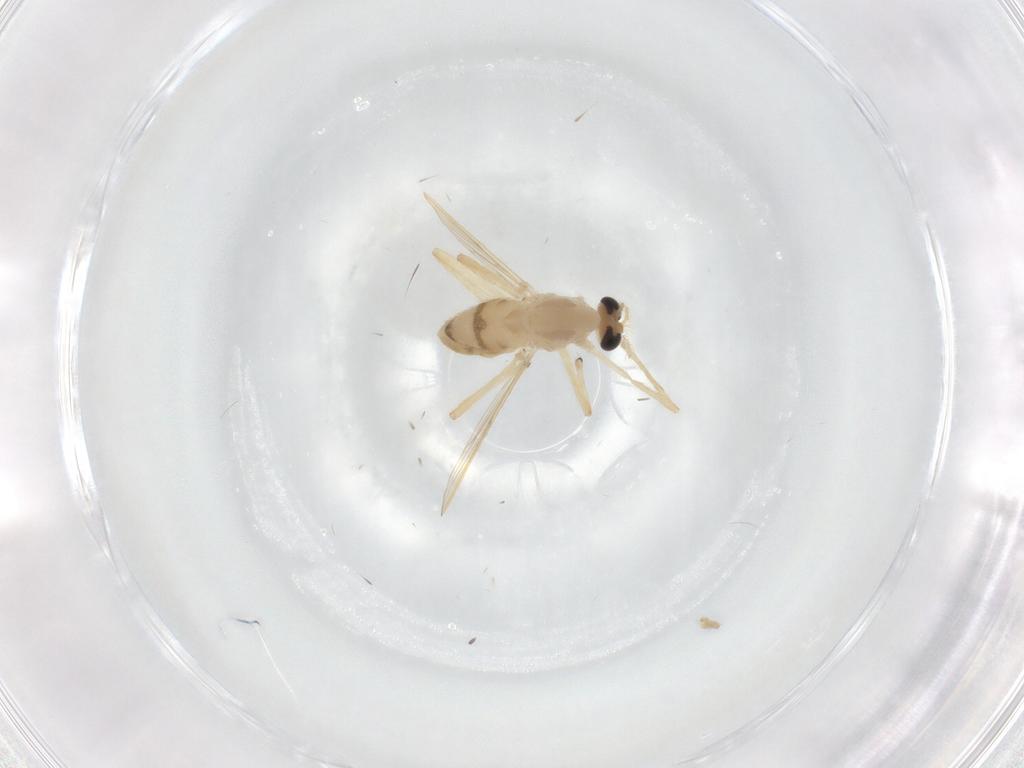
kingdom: Animalia
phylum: Arthropoda
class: Insecta
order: Diptera
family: Chironomidae
